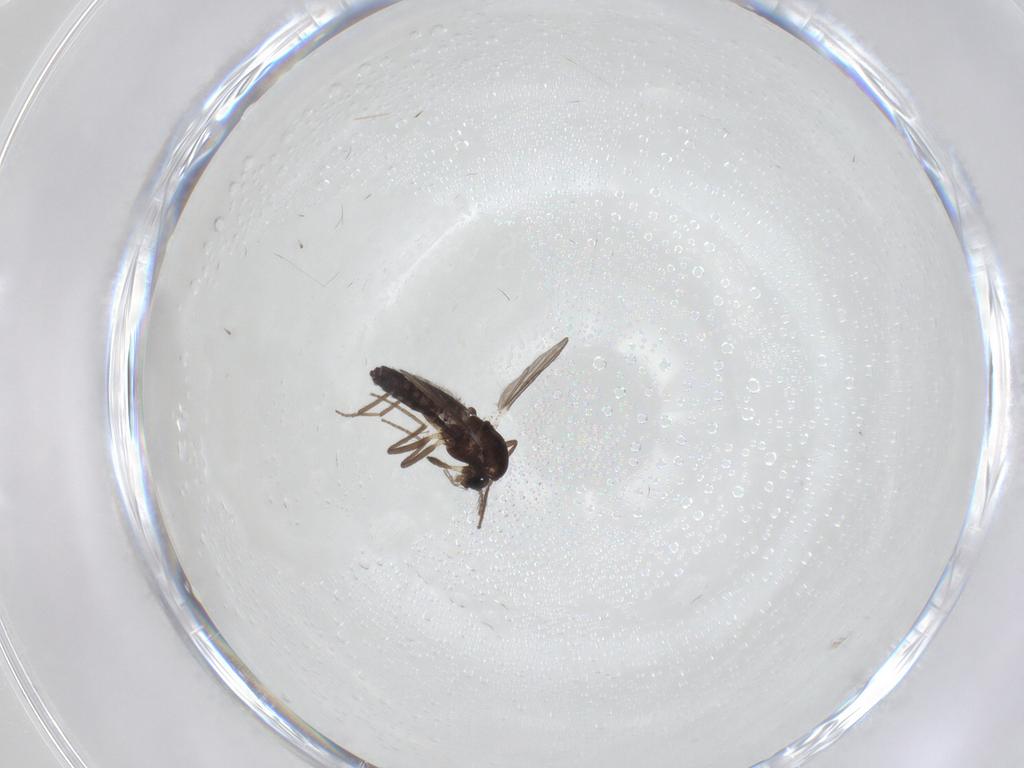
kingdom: Animalia
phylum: Arthropoda
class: Insecta
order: Diptera
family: Chironomidae
